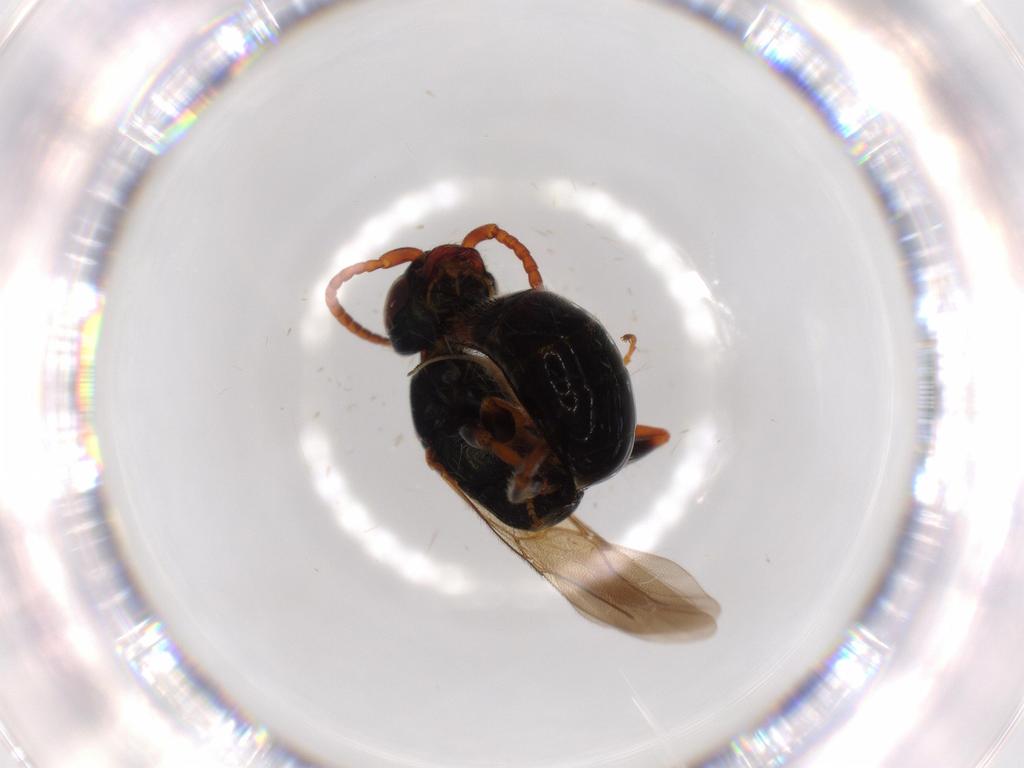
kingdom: Animalia
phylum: Arthropoda
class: Insecta
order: Hymenoptera
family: Bethylidae
